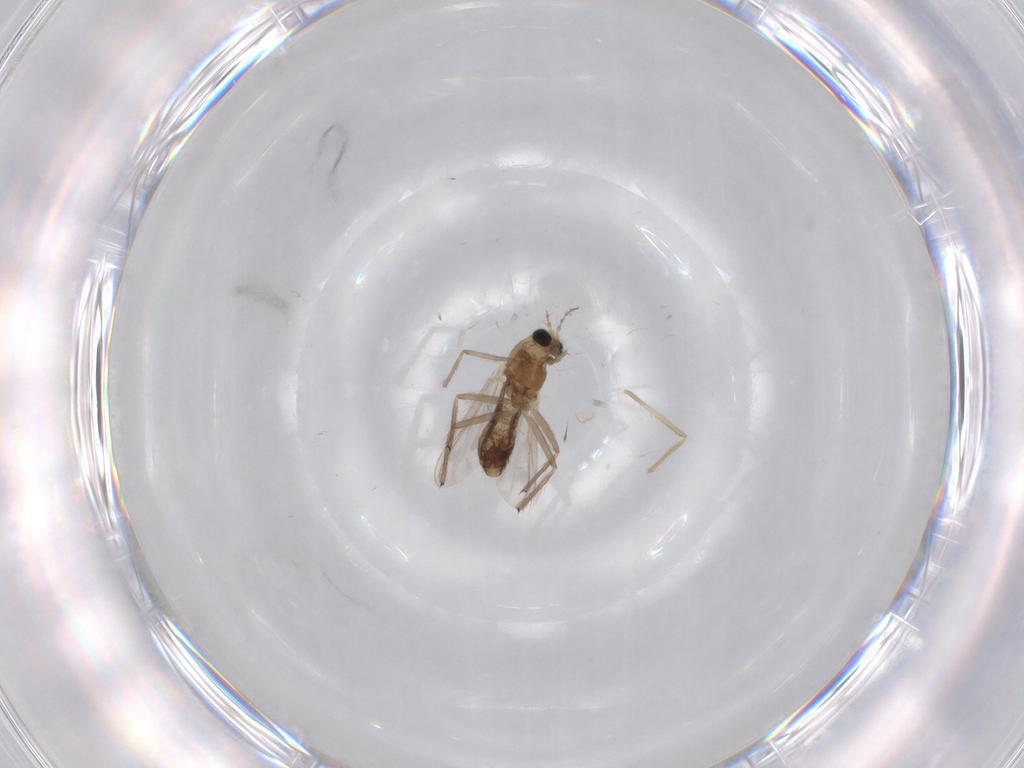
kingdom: Animalia
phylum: Arthropoda
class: Insecta
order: Diptera
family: Chironomidae
